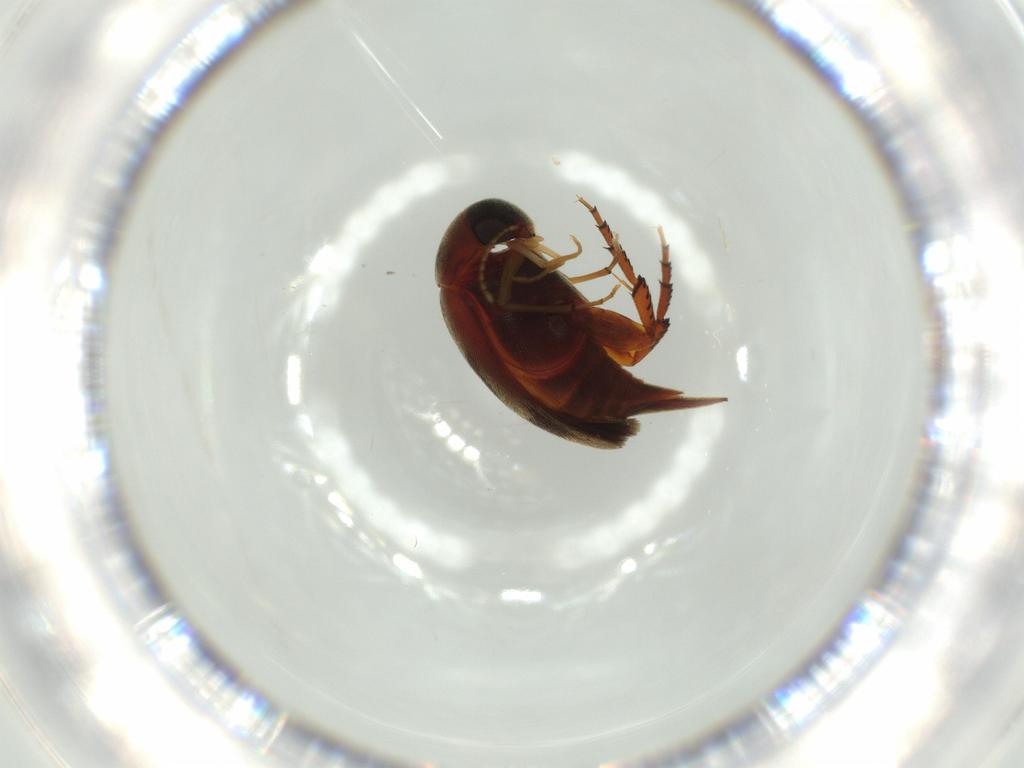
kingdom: Animalia
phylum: Arthropoda
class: Insecta
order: Coleoptera
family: Mordellidae
